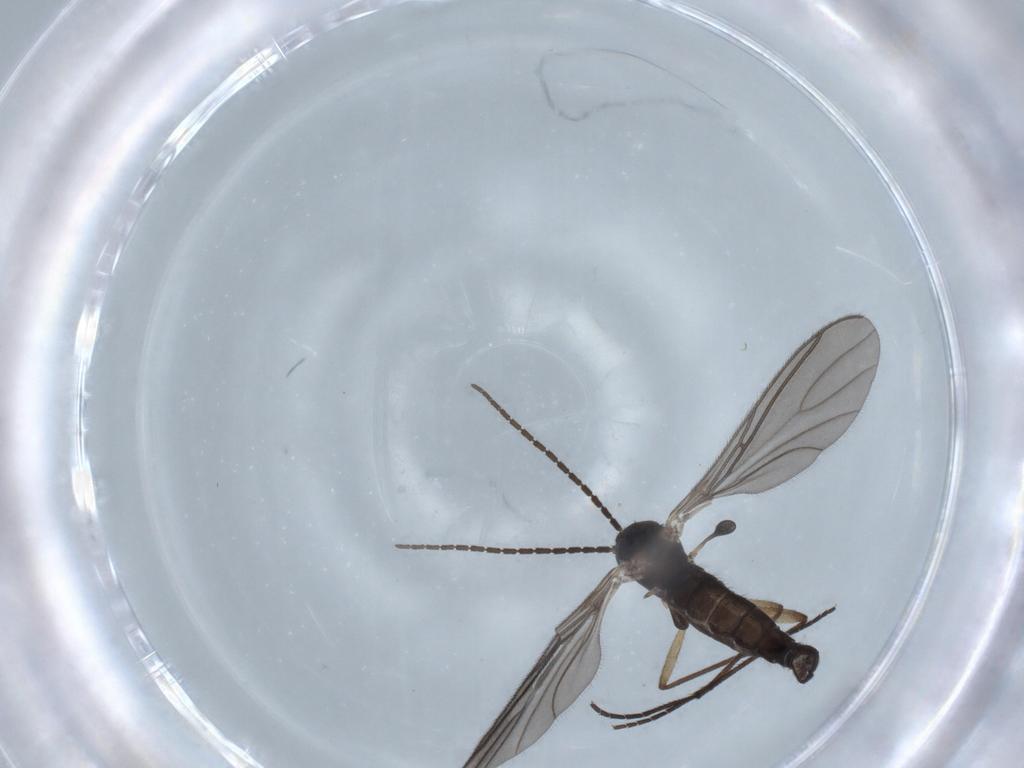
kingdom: Animalia
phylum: Arthropoda
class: Insecta
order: Diptera
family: Sciaridae
